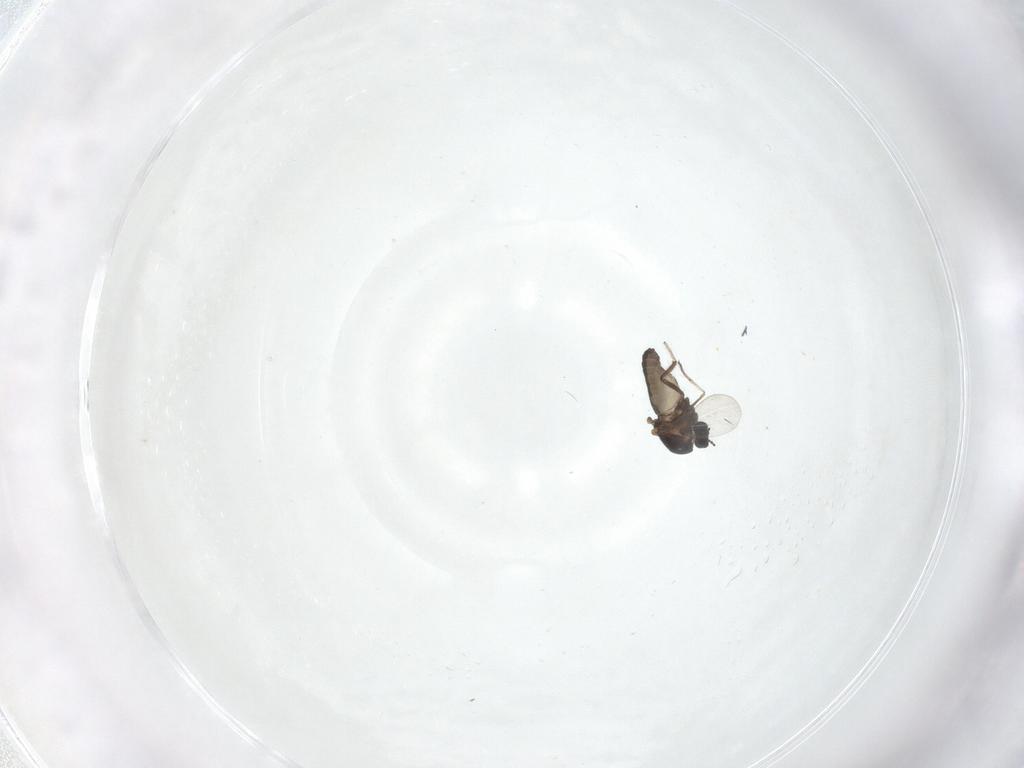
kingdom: Animalia
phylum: Arthropoda
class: Insecta
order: Diptera
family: Ceratopogonidae
